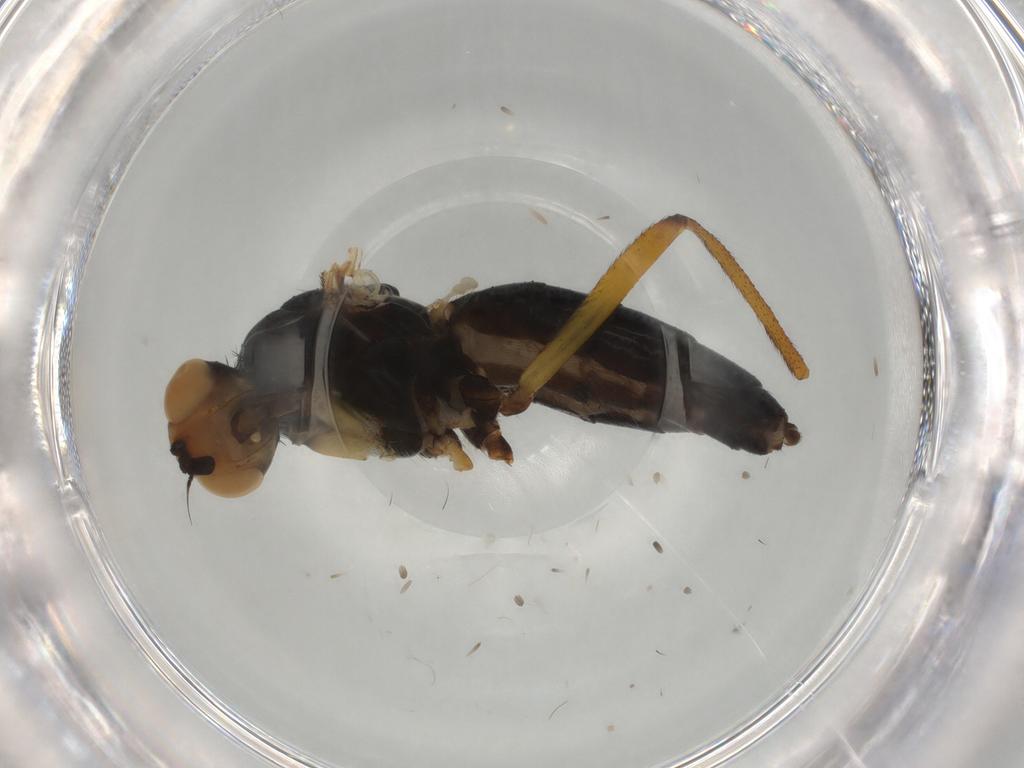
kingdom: Animalia
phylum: Arthropoda
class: Insecta
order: Diptera
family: Scathophagidae
